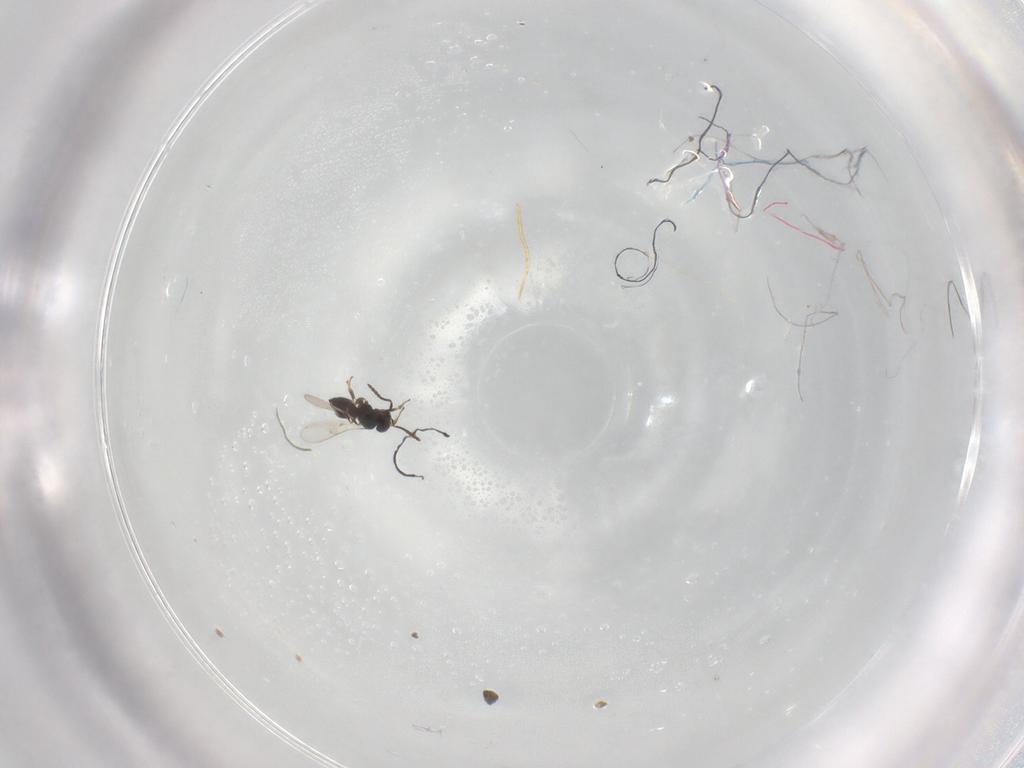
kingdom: Animalia
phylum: Arthropoda
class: Insecta
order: Hymenoptera
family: Scelionidae
